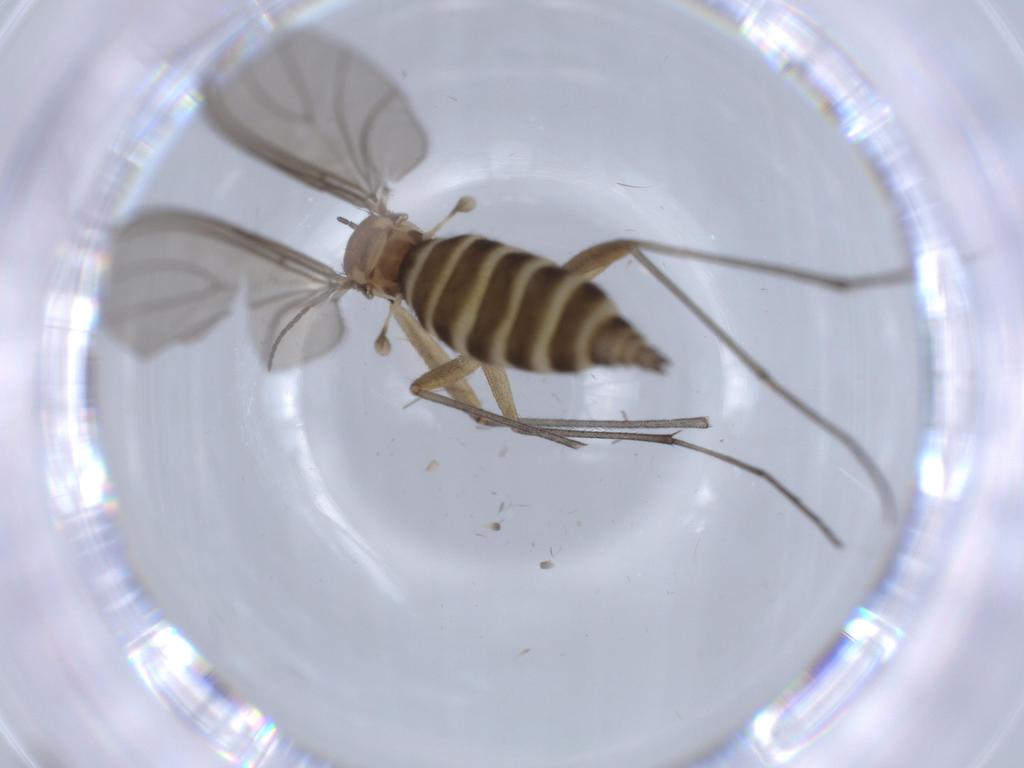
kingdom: Animalia
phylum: Arthropoda
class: Insecta
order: Diptera
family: Sciaridae
